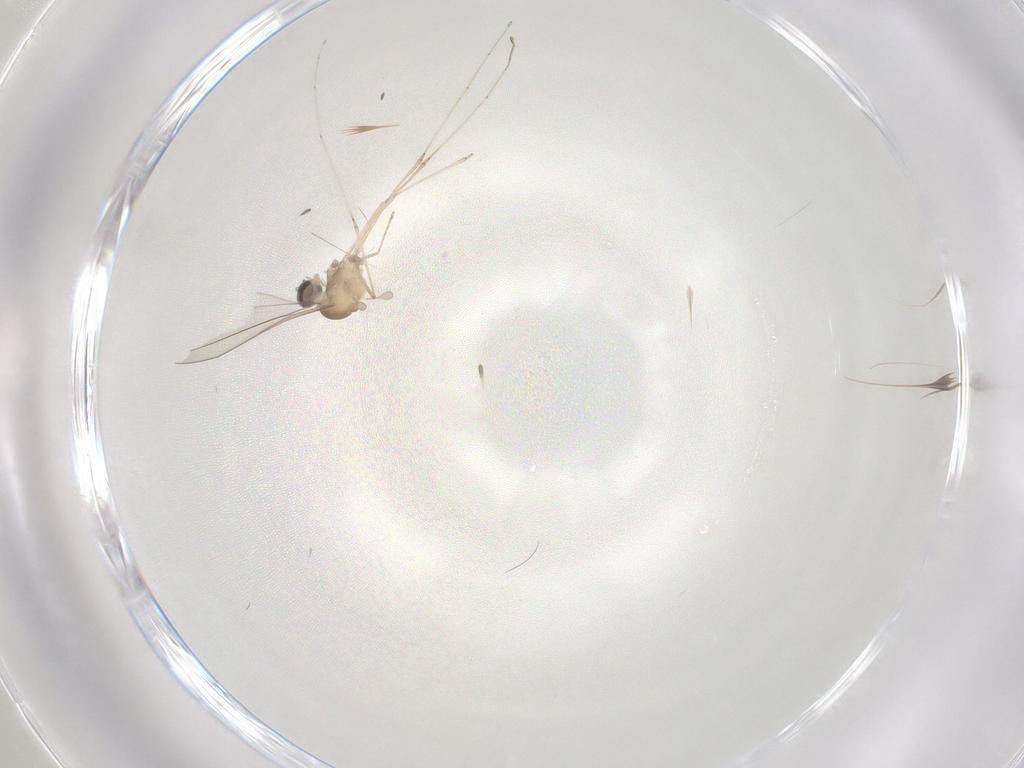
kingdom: Animalia
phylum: Arthropoda
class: Insecta
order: Diptera
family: Cecidomyiidae
